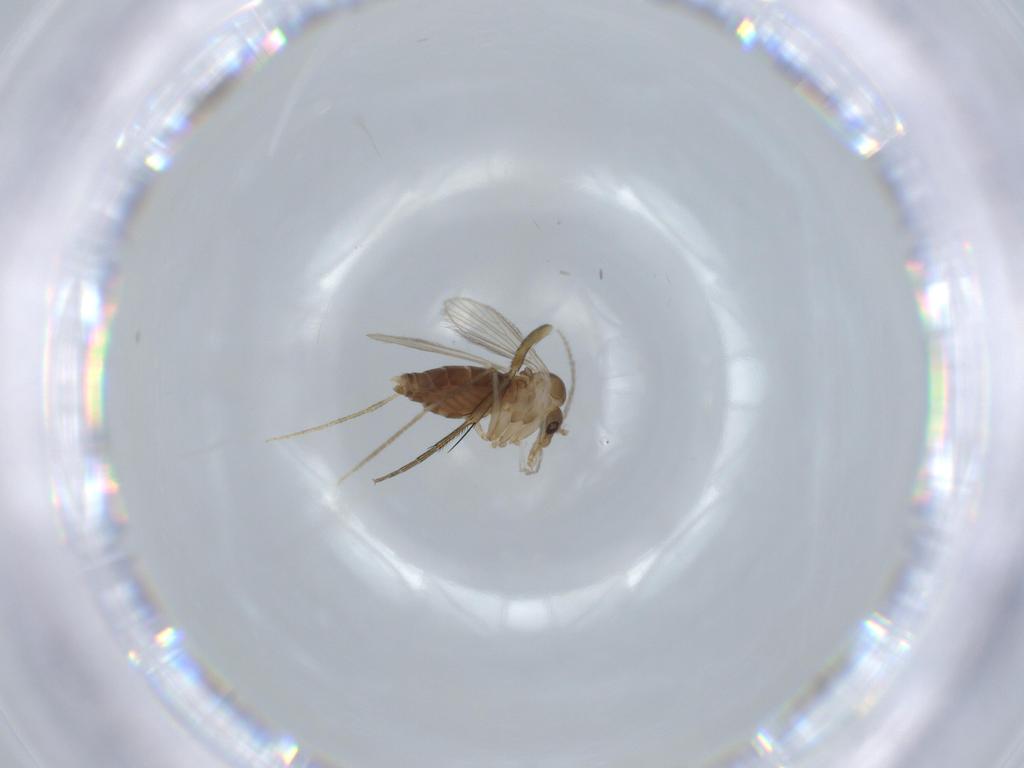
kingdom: Animalia
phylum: Arthropoda
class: Insecta
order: Diptera
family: Psychodidae
